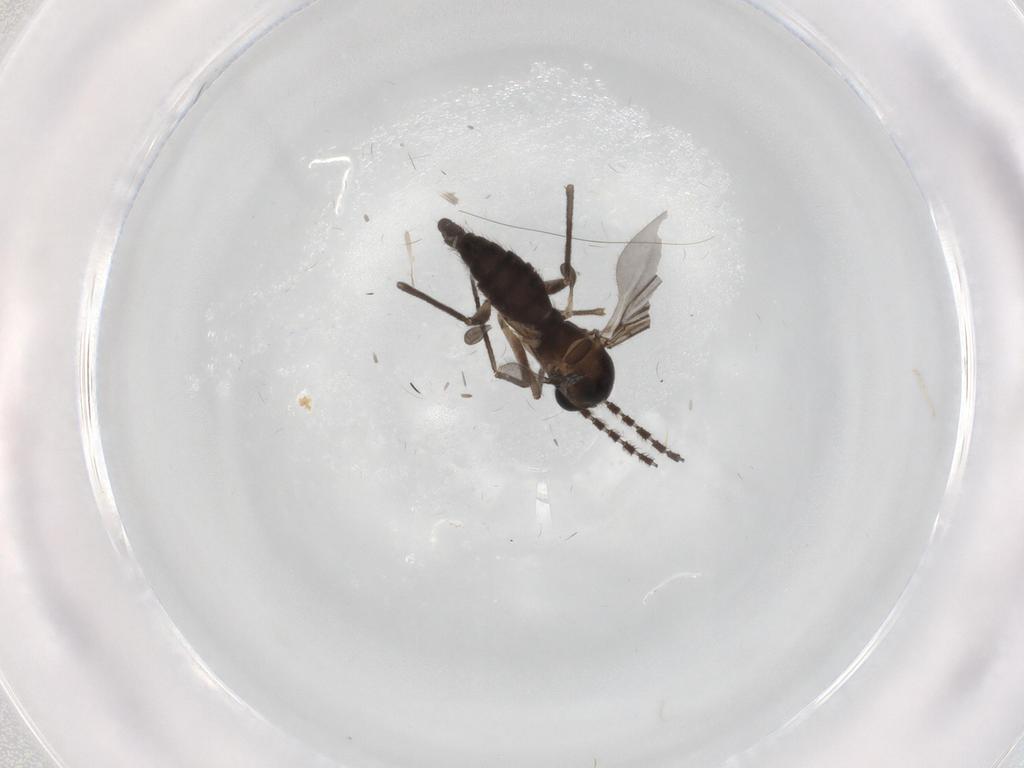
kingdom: Animalia
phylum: Arthropoda
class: Insecta
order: Diptera
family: Sciaridae
